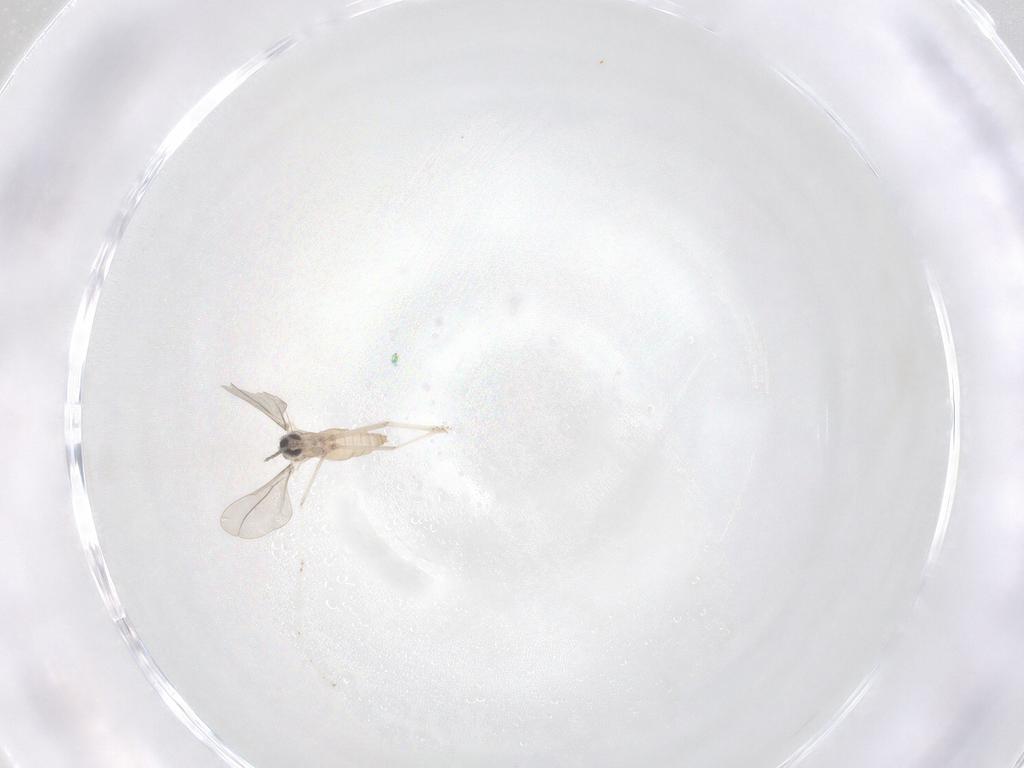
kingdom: Animalia
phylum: Arthropoda
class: Insecta
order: Diptera
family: Cecidomyiidae
